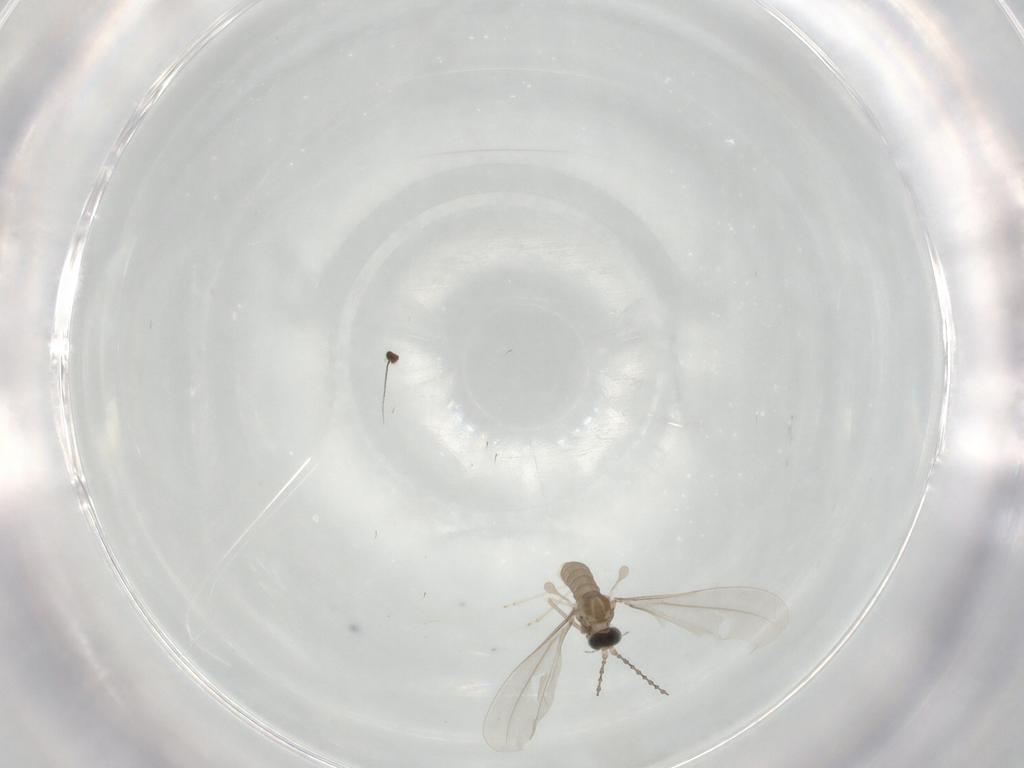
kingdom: Animalia
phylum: Arthropoda
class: Insecta
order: Diptera
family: Cecidomyiidae
